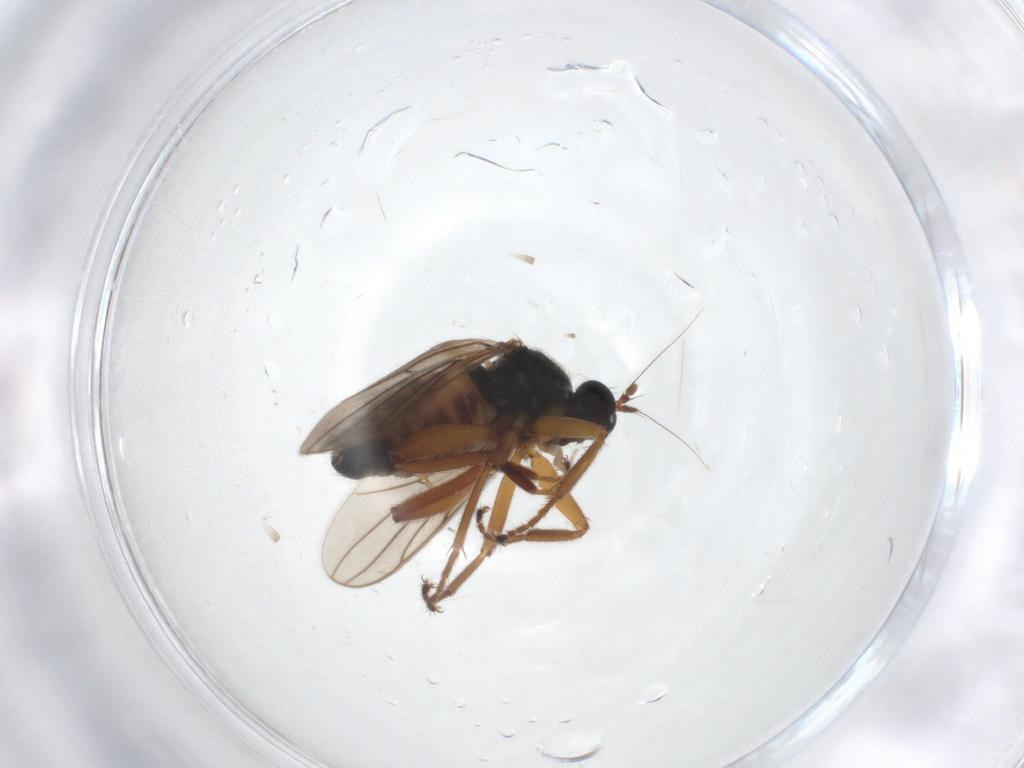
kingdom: Animalia
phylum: Arthropoda
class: Insecta
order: Diptera
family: Hybotidae
